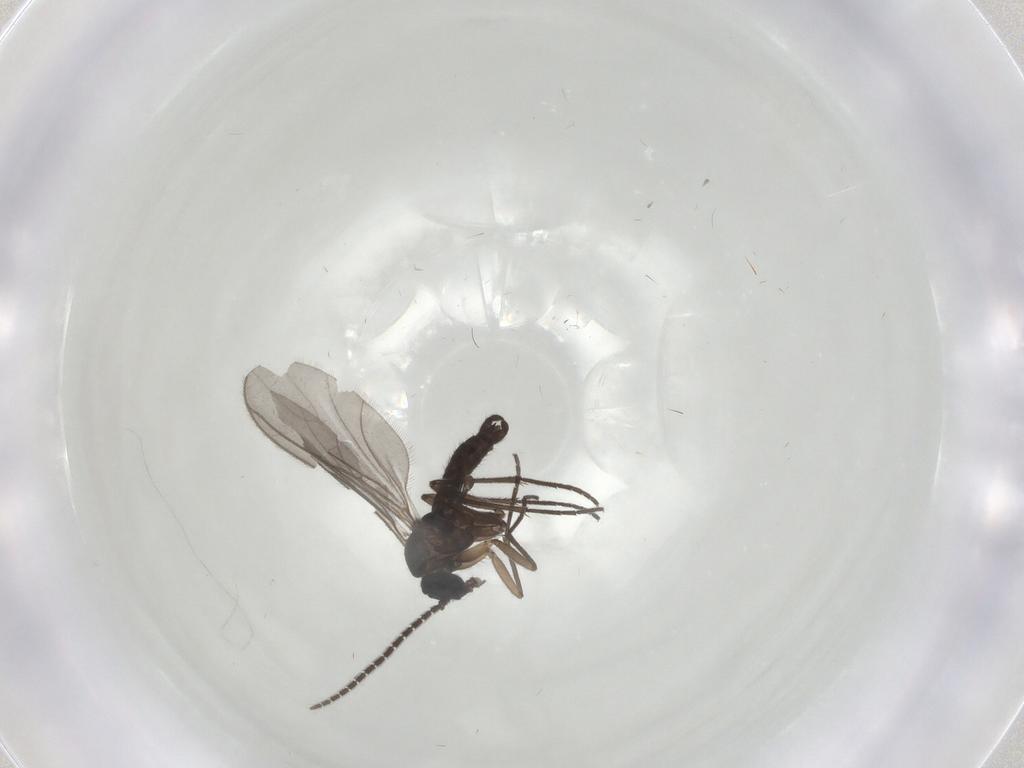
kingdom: Animalia
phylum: Arthropoda
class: Insecta
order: Diptera
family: Sciaridae
